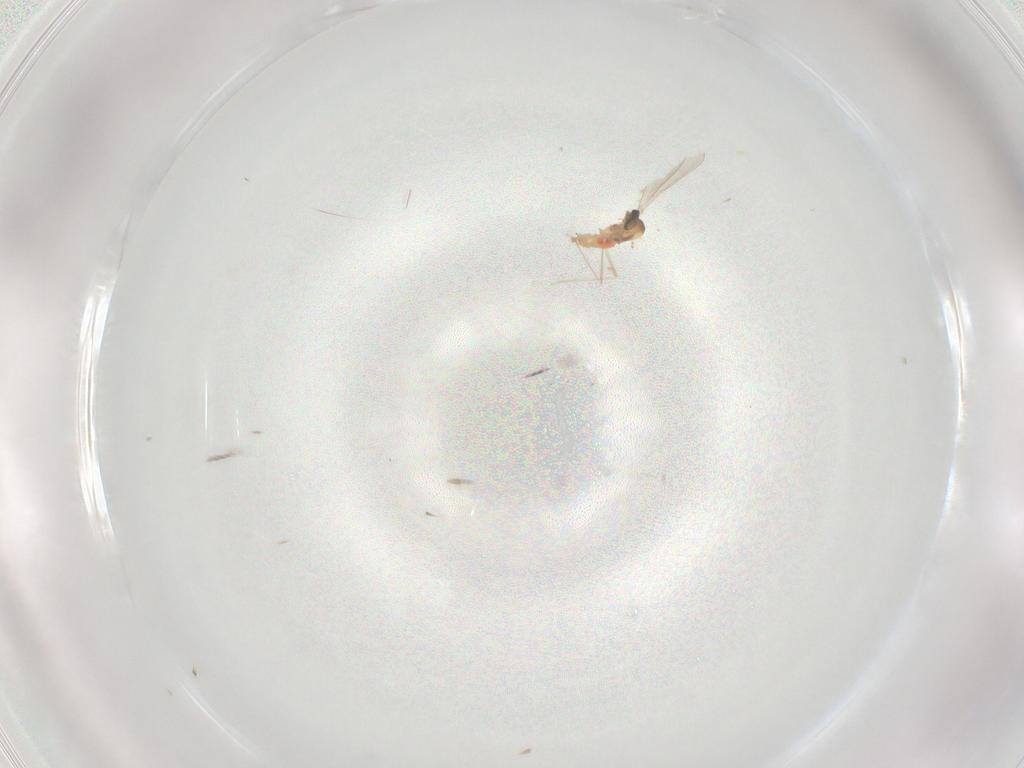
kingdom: Animalia
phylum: Arthropoda
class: Insecta
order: Diptera
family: Cecidomyiidae
